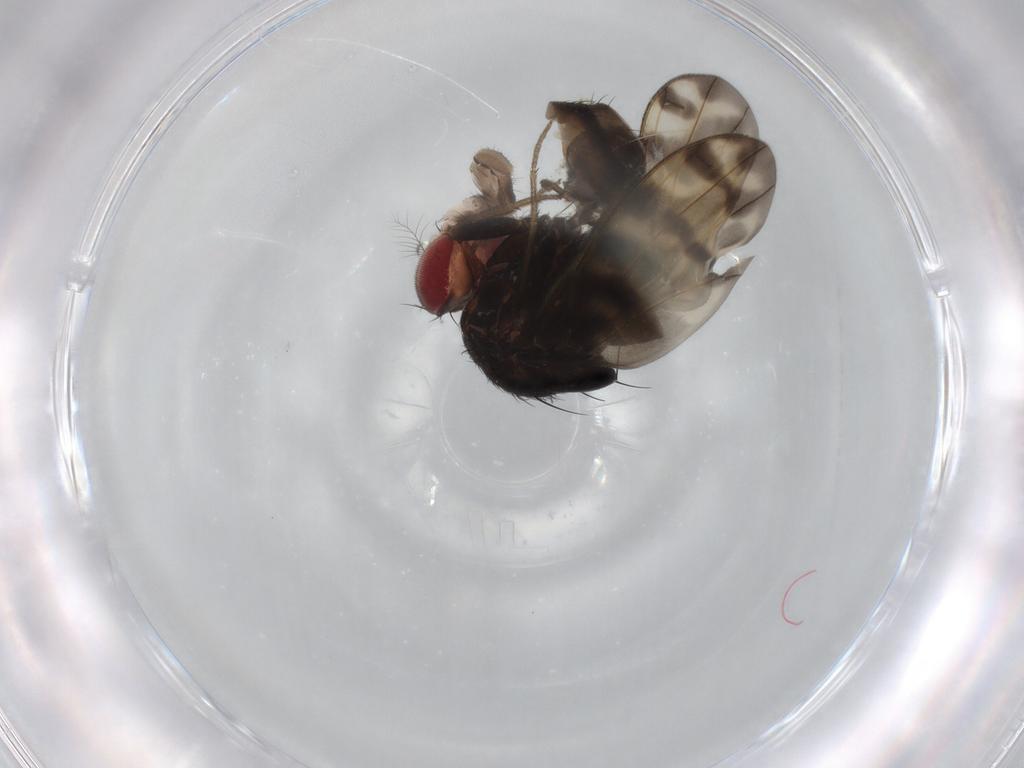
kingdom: Animalia
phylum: Arthropoda
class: Insecta
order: Diptera
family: Drosophilidae
